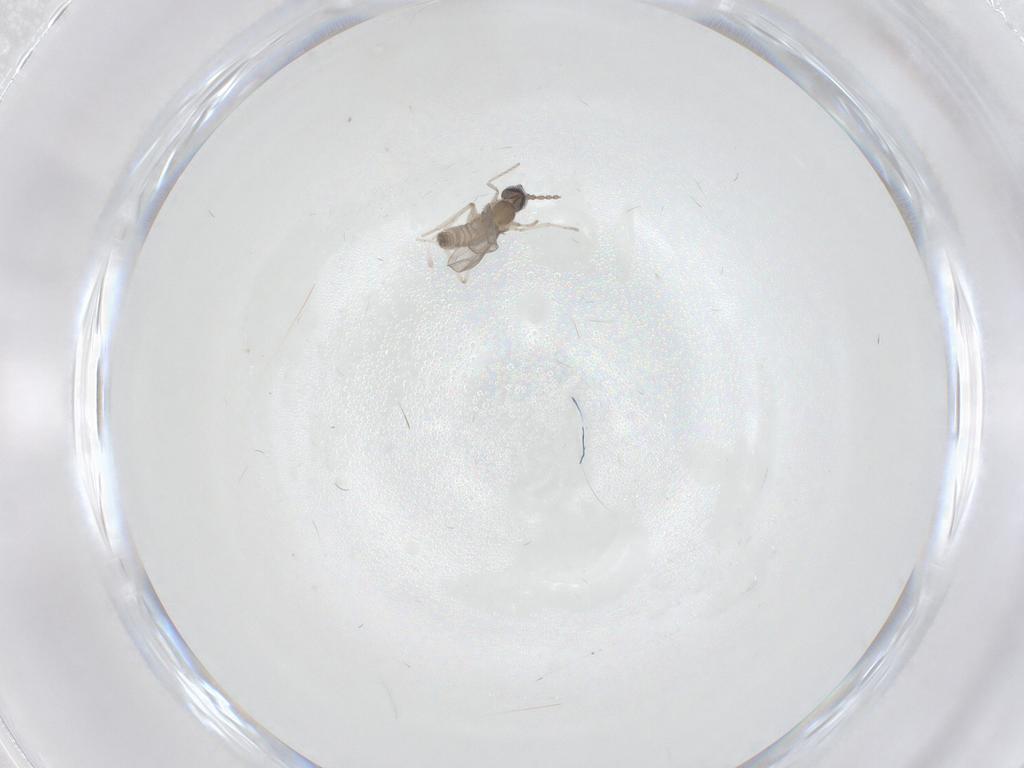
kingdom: Animalia
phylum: Arthropoda
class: Insecta
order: Diptera
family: Cecidomyiidae
